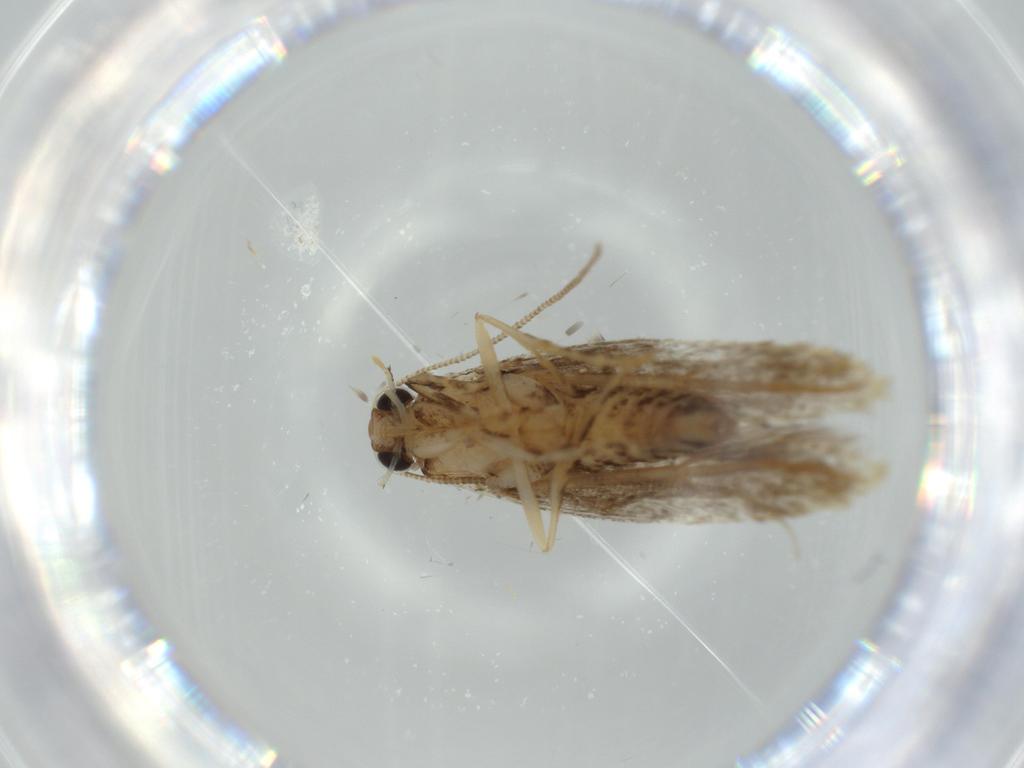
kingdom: Animalia
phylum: Arthropoda
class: Insecta
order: Lepidoptera
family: Tineidae
